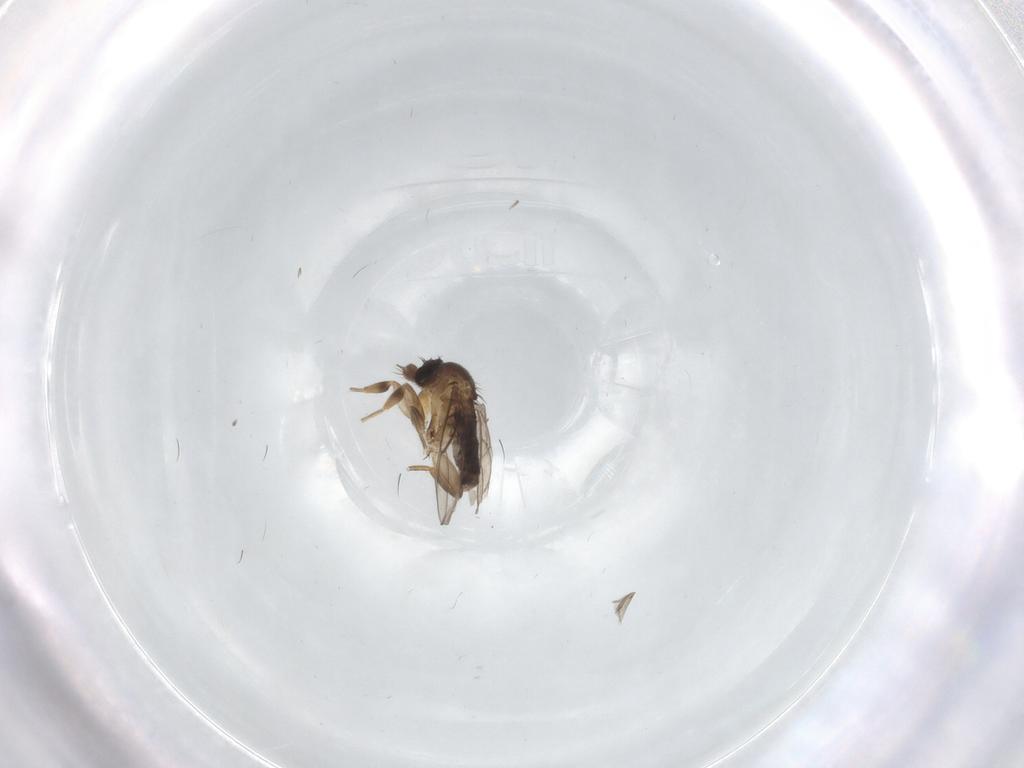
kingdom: Animalia
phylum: Arthropoda
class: Insecta
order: Diptera
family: Phoridae
